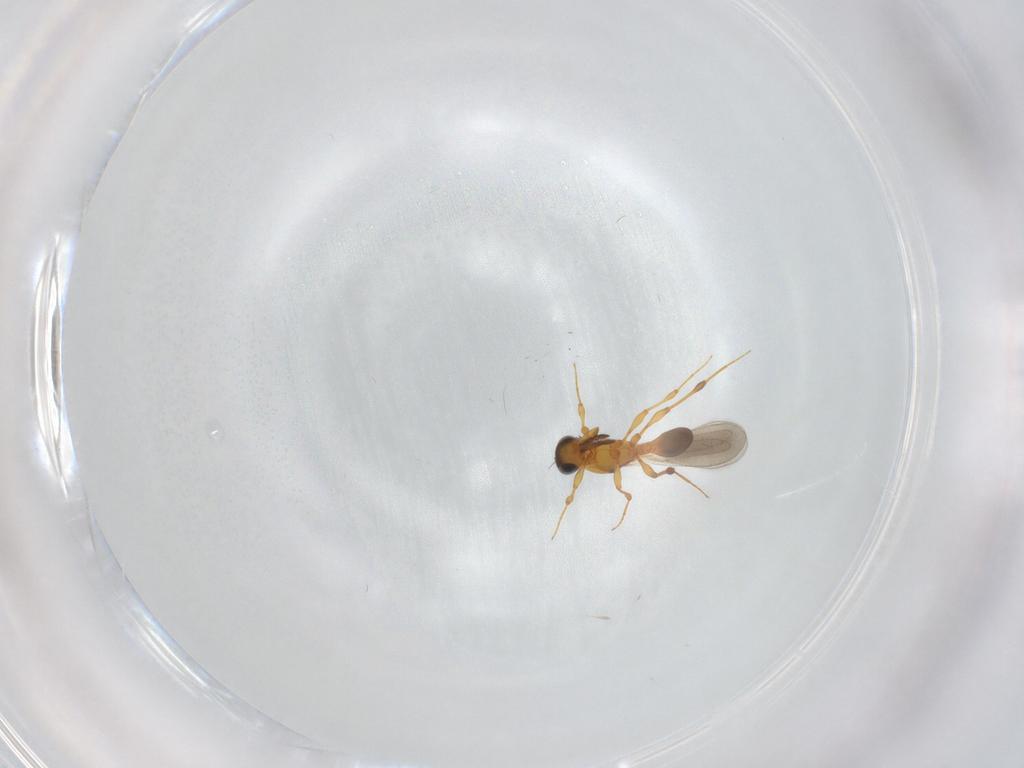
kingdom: Animalia
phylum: Arthropoda
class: Insecta
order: Hymenoptera
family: Platygastridae
